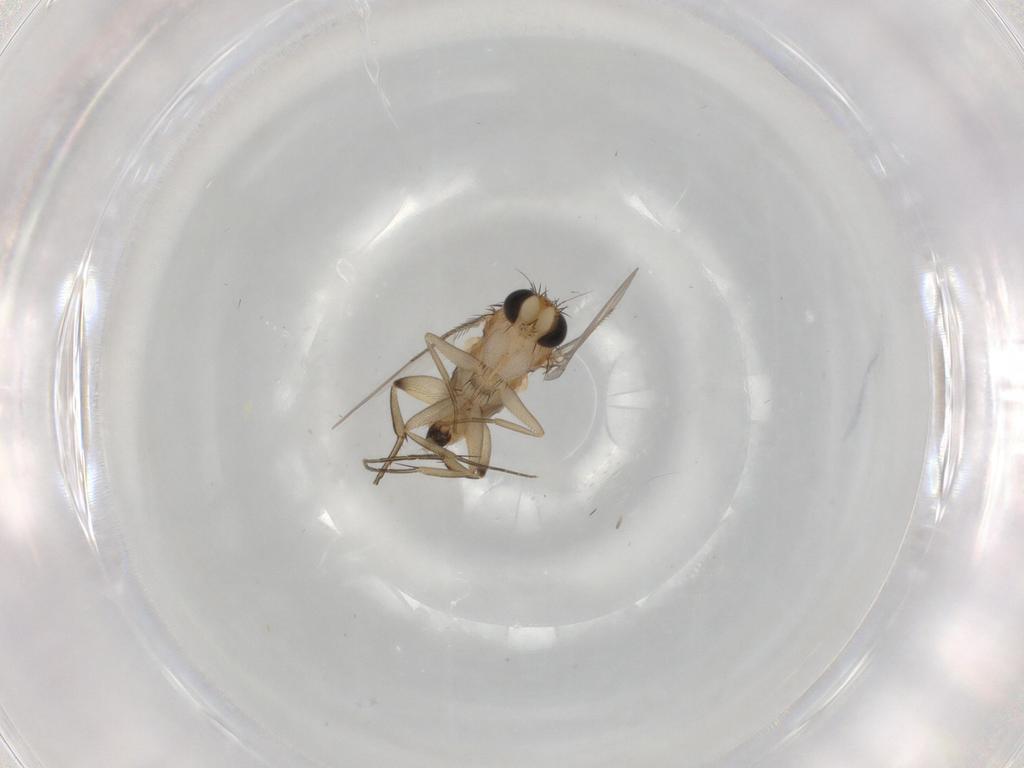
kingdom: Animalia
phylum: Arthropoda
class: Insecta
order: Diptera
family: Phoridae
